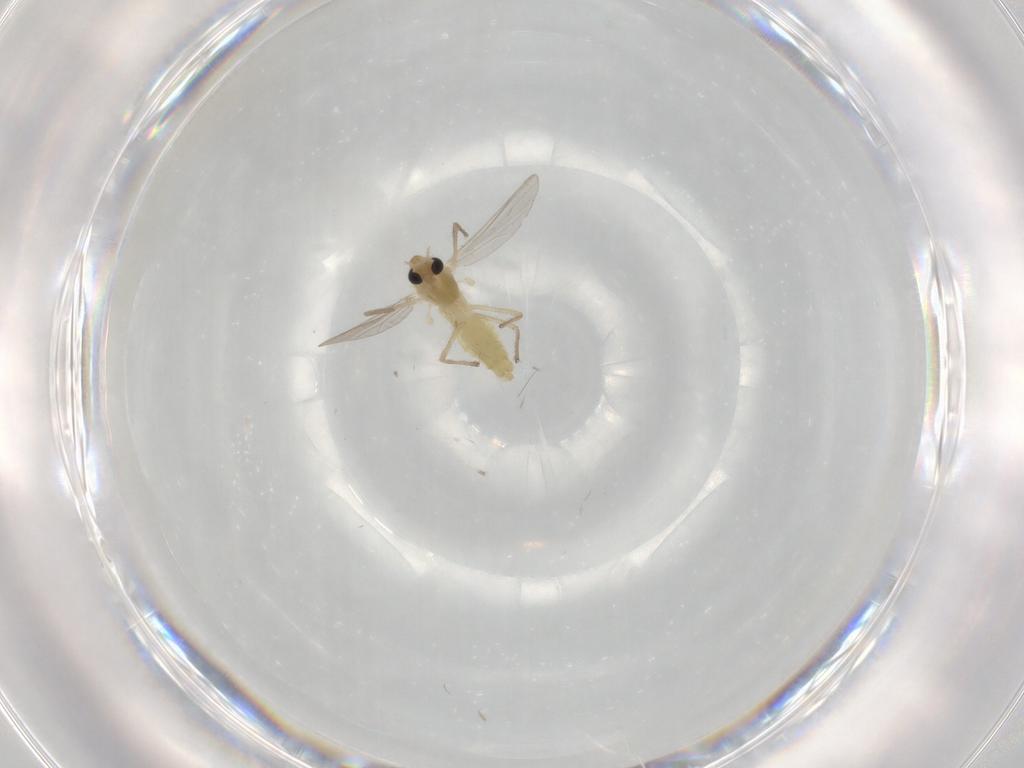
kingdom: Animalia
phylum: Arthropoda
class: Insecta
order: Diptera
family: Chironomidae
